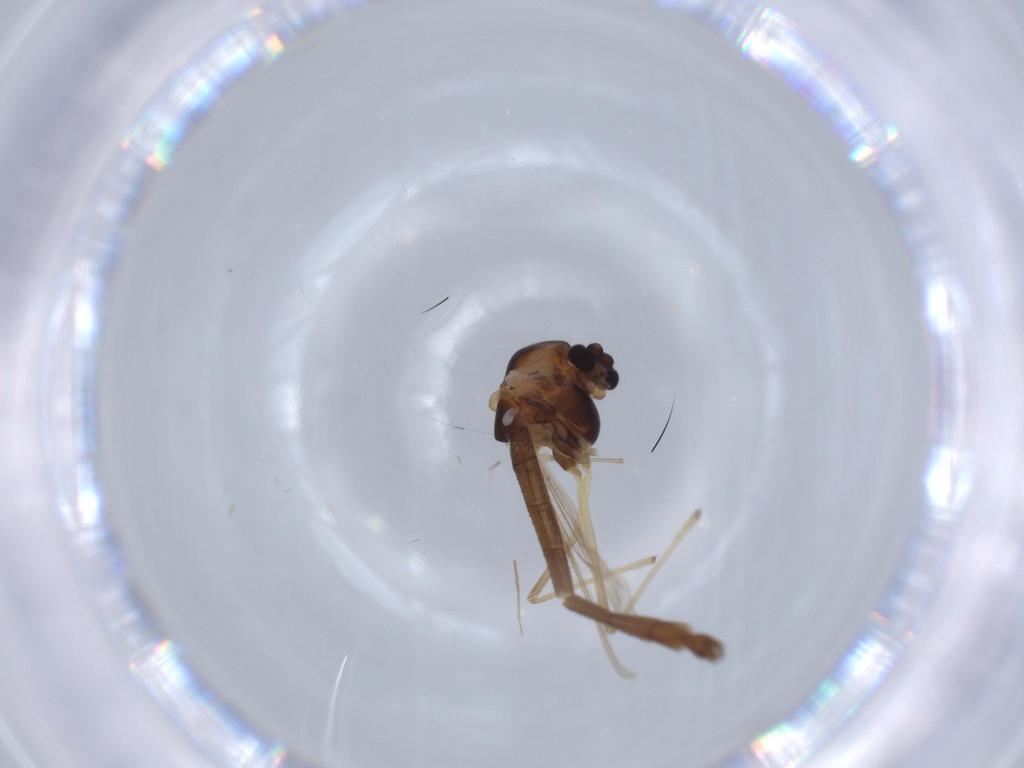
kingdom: Animalia
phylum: Arthropoda
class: Insecta
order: Diptera
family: Chironomidae
